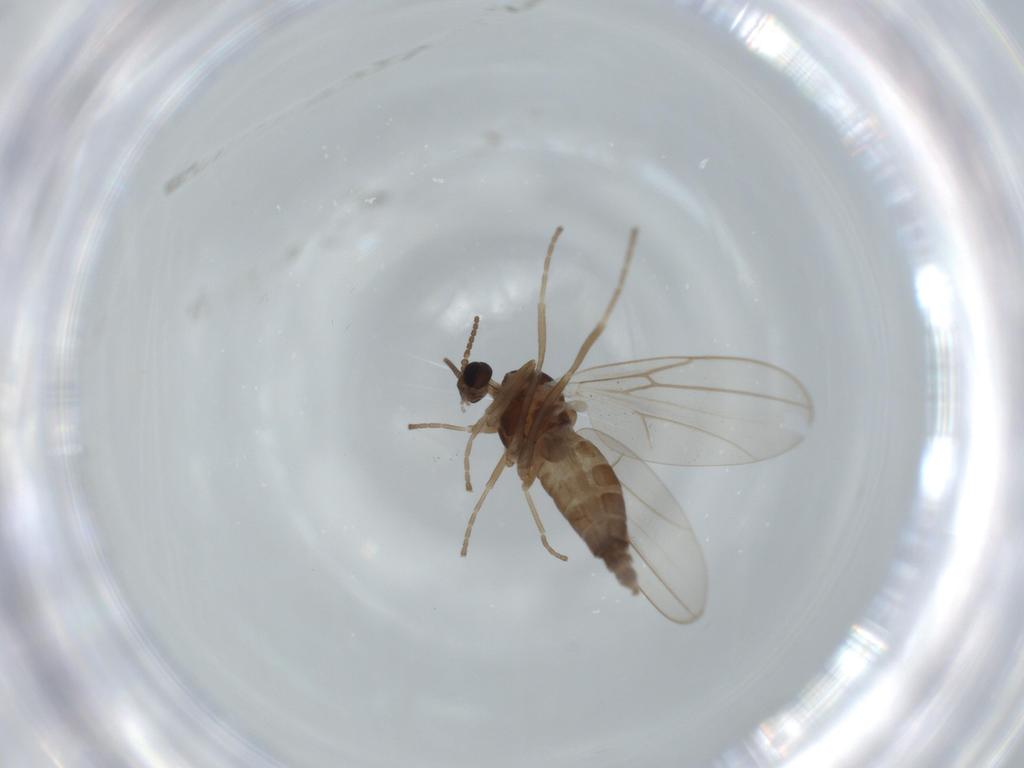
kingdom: Animalia
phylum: Arthropoda
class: Insecta
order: Diptera
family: Cecidomyiidae
